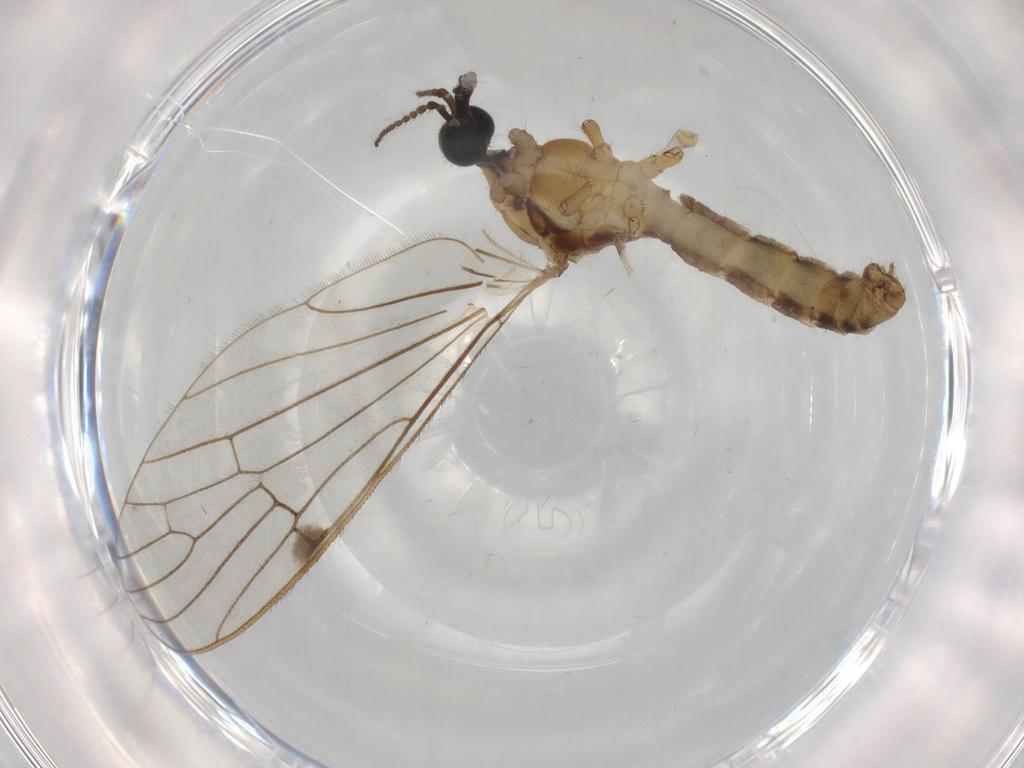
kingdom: Animalia
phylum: Arthropoda
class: Insecta
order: Diptera
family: Limoniidae
